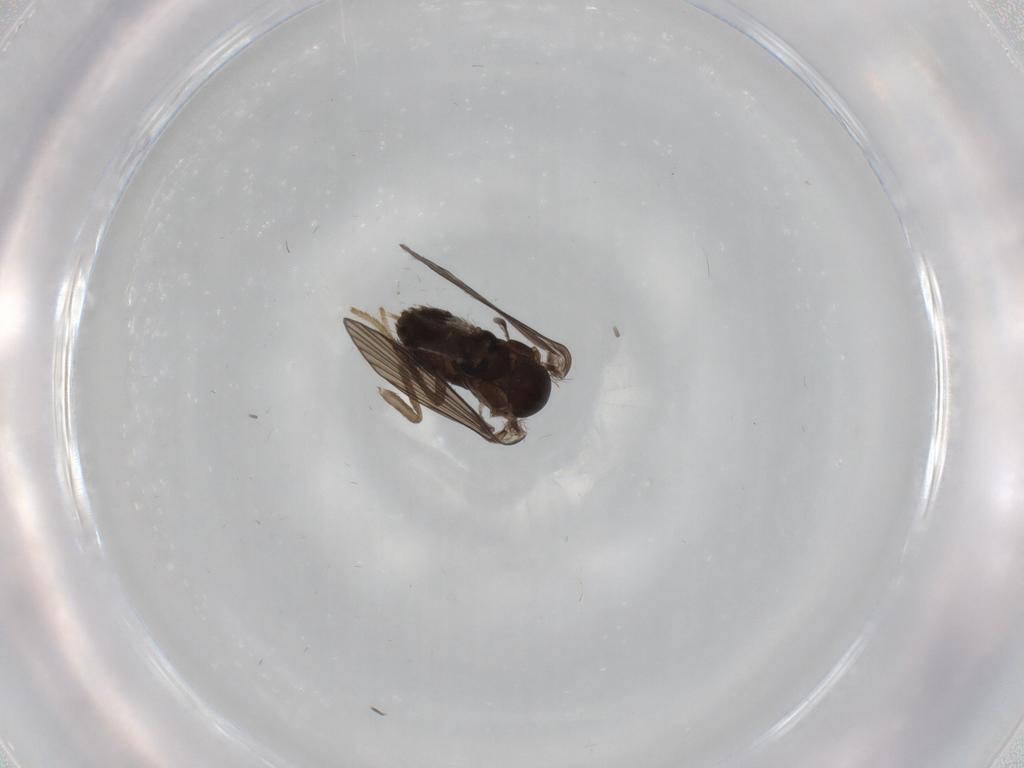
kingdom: Animalia
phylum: Arthropoda
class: Insecta
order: Diptera
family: Psychodidae
